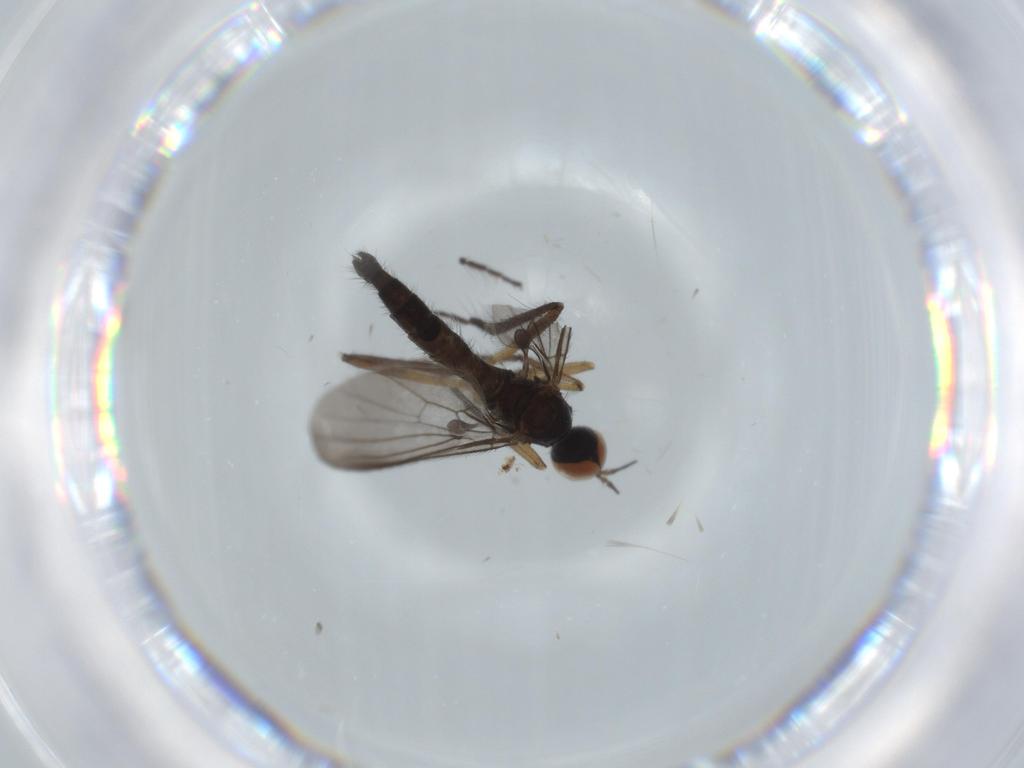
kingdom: Animalia
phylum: Arthropoda
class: Insecta
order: Diptera
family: Empididae
